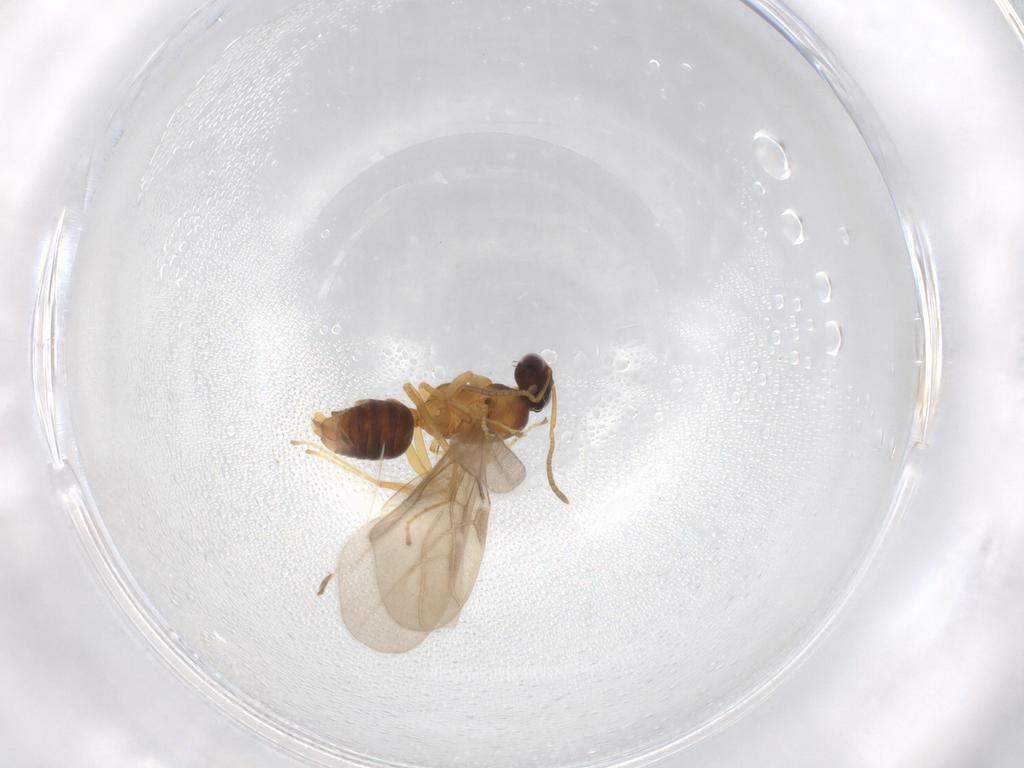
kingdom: Animalia
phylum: Arthropoda
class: Insecta
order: Hymenoptera
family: Formicidae
